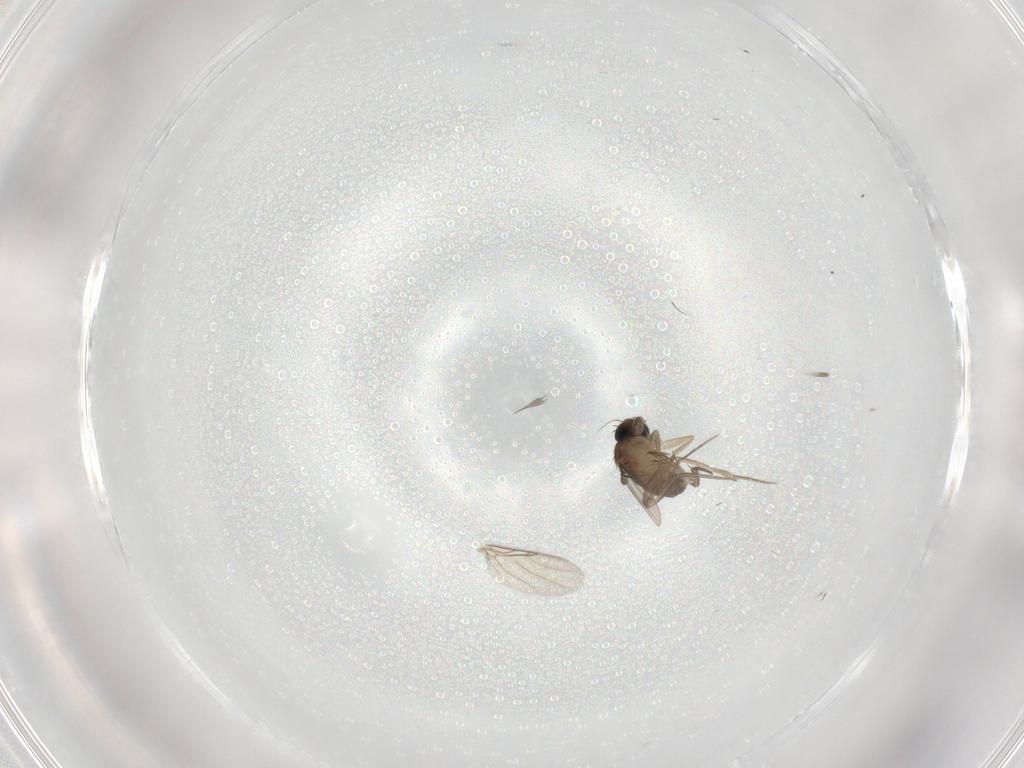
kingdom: Animalia
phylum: Arthropoda
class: Insecta
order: Diptera
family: Phoridae
